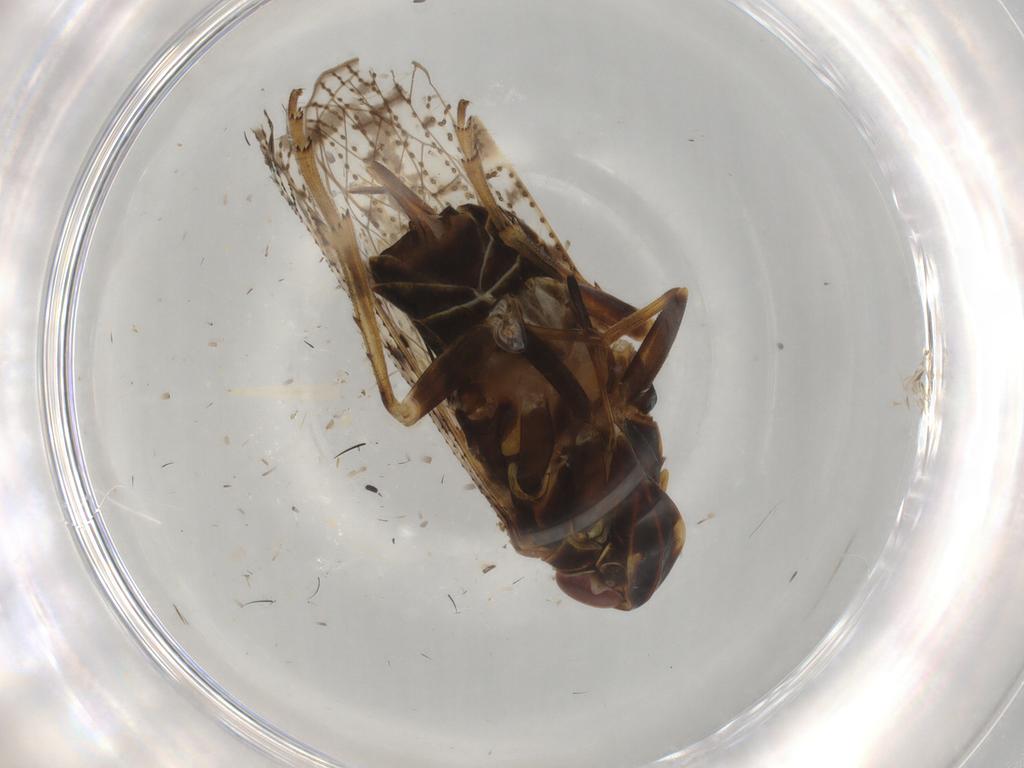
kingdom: Animalia
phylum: Arthropoda
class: Insecta
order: Hemiptera
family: Cixiidae
